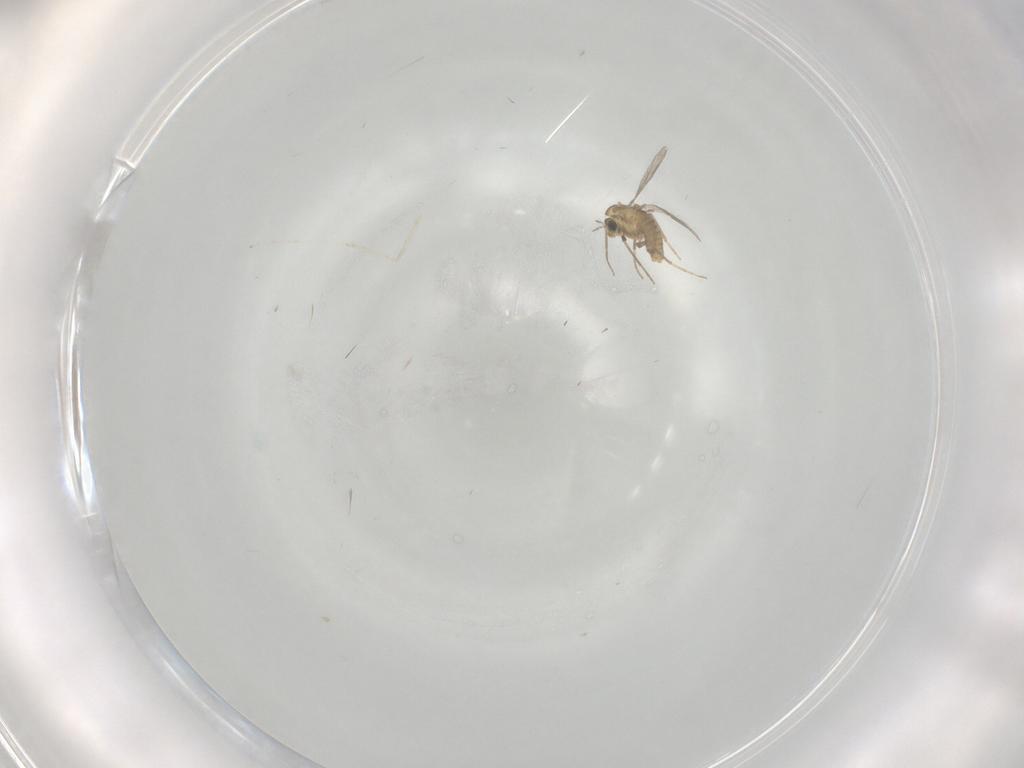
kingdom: Animalia
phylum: Arthropoda
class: Insecta
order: Diptera
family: Chironomidae
